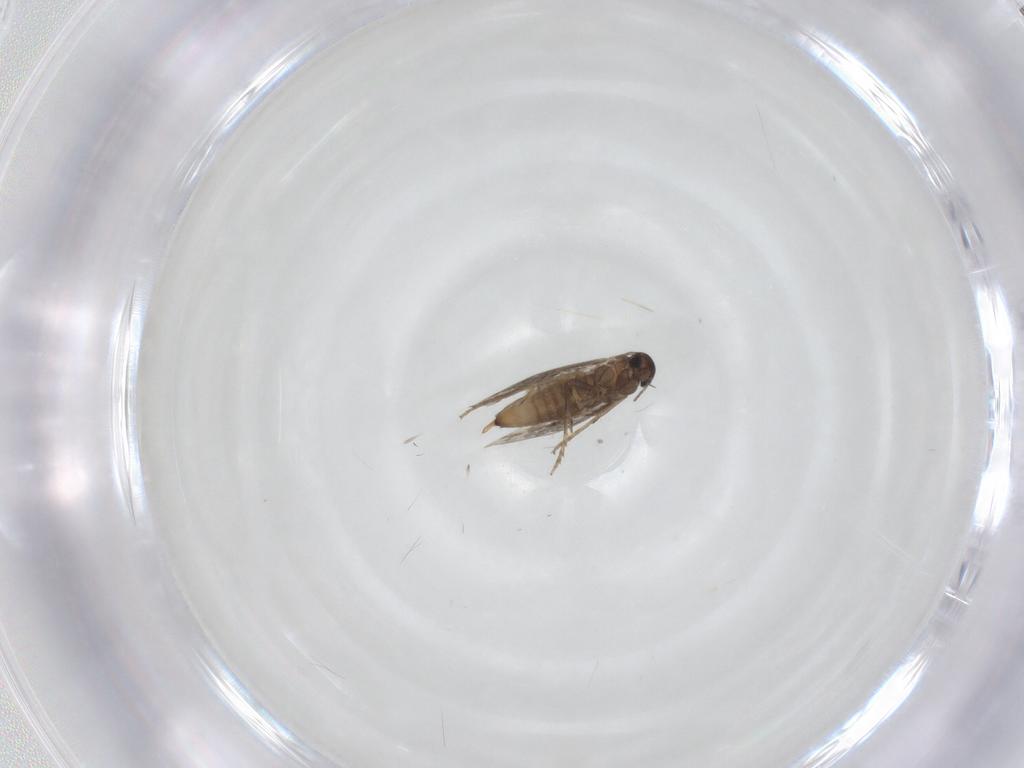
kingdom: Animalia
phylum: Arthropoda
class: Insecta
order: Lepidoptera
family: Heliozelidae
